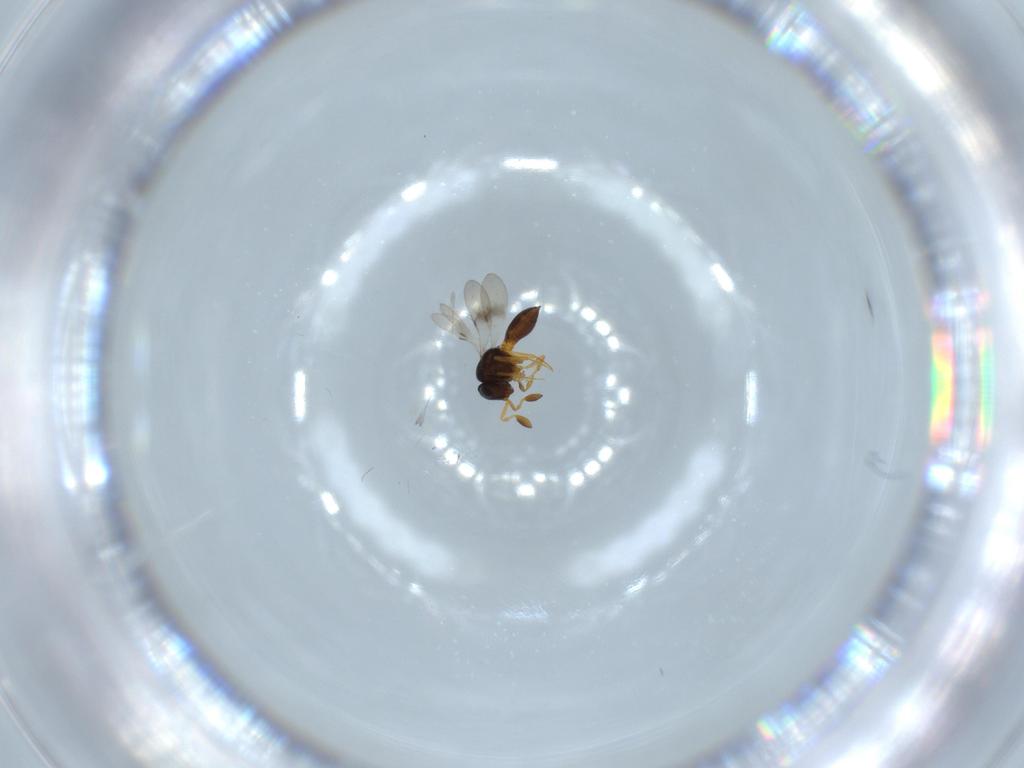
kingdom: Animalia
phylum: Arthropoda
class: Insecta
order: Hymenoptera
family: Scelionidae
